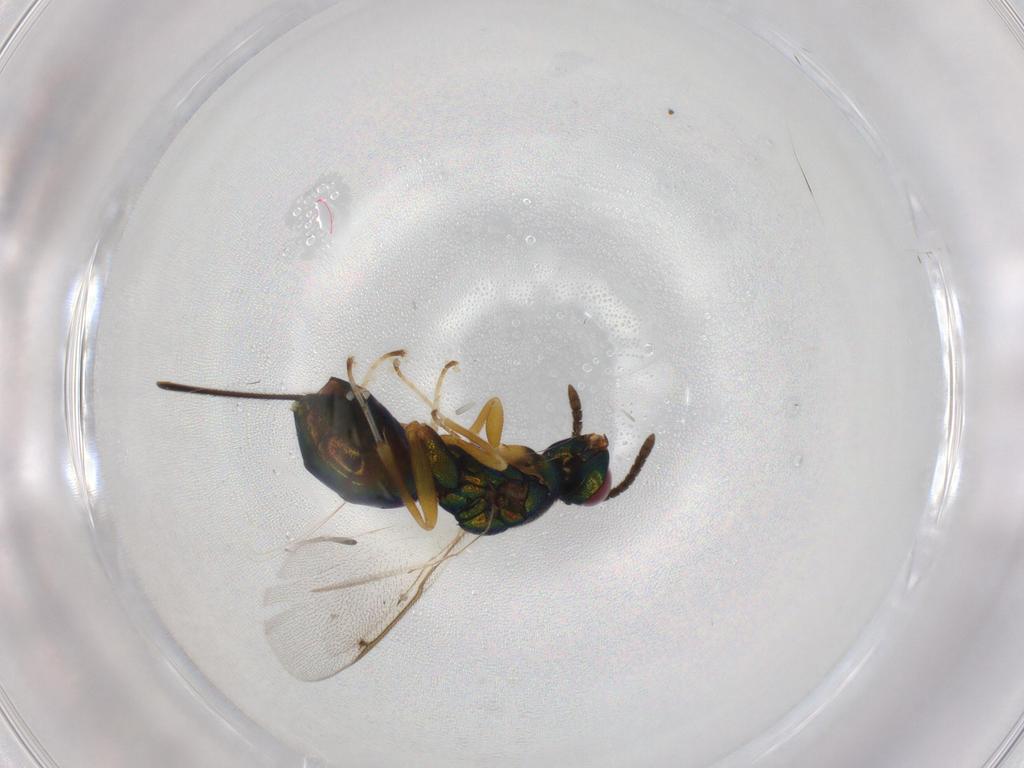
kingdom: Animalia
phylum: Arthropoda
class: Insecta
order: Hymenoptera
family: Torymidae
